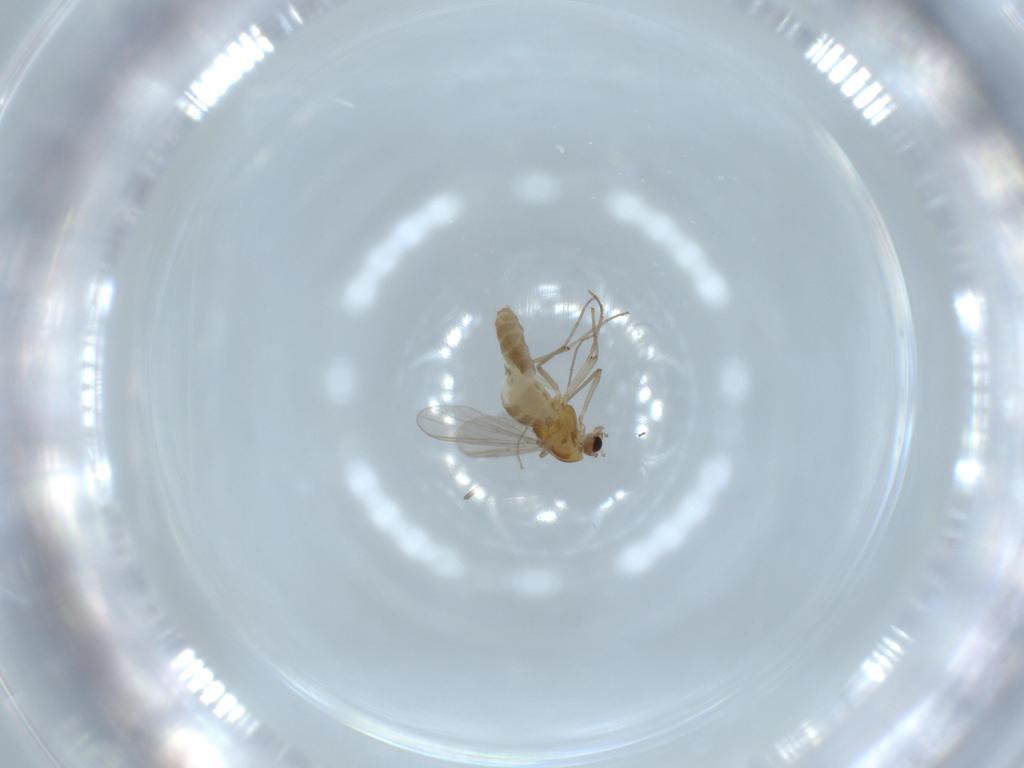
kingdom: Animalia
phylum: Arthropoda
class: Insecta
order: Diptera
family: Chironomidae
